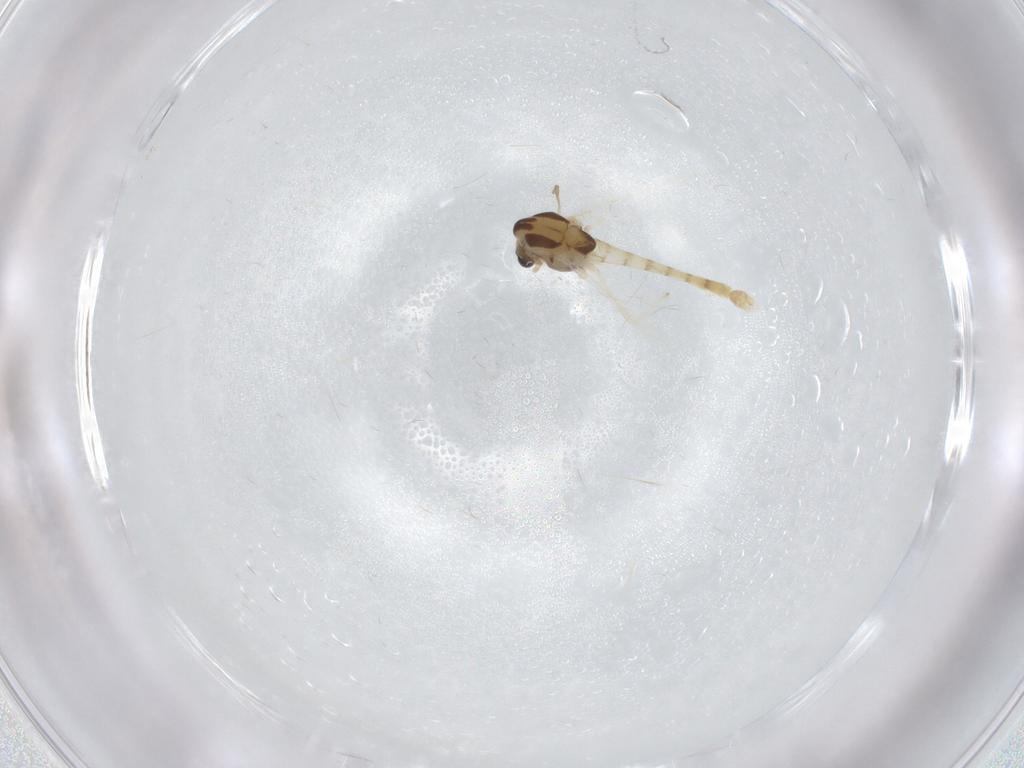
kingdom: Animalia
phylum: Arthropoda
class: Insecta
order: Diptera
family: Chironomidae
